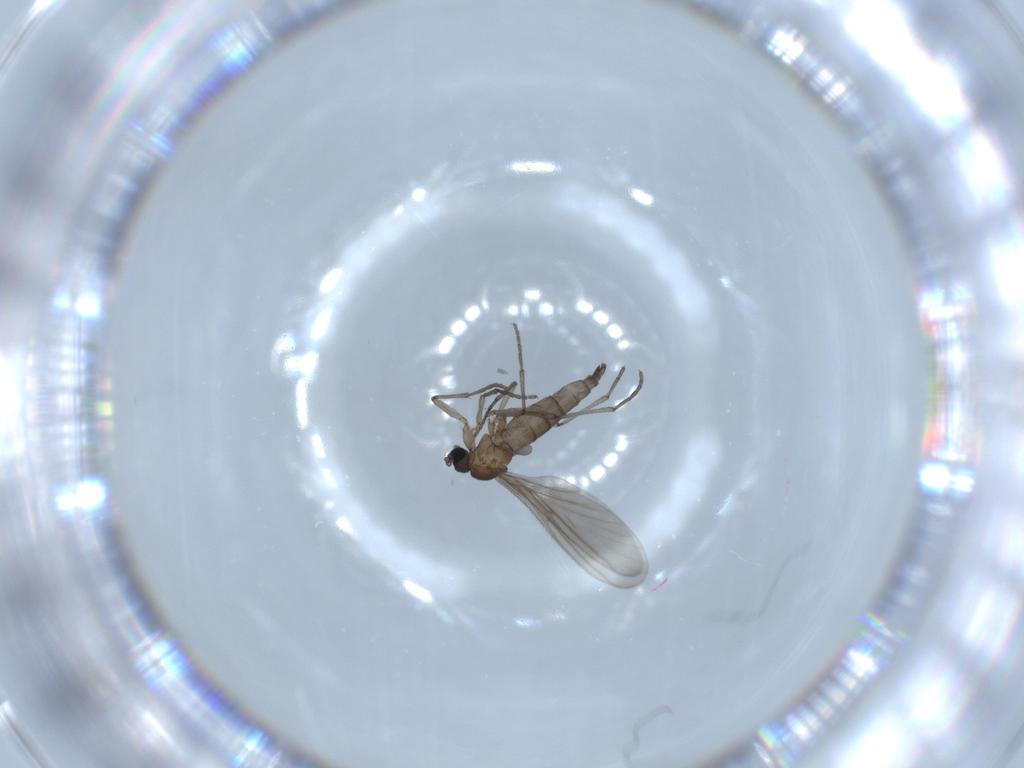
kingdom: Animalia
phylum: Arthropoda
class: Insecta
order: Diptera
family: Sciaridae
